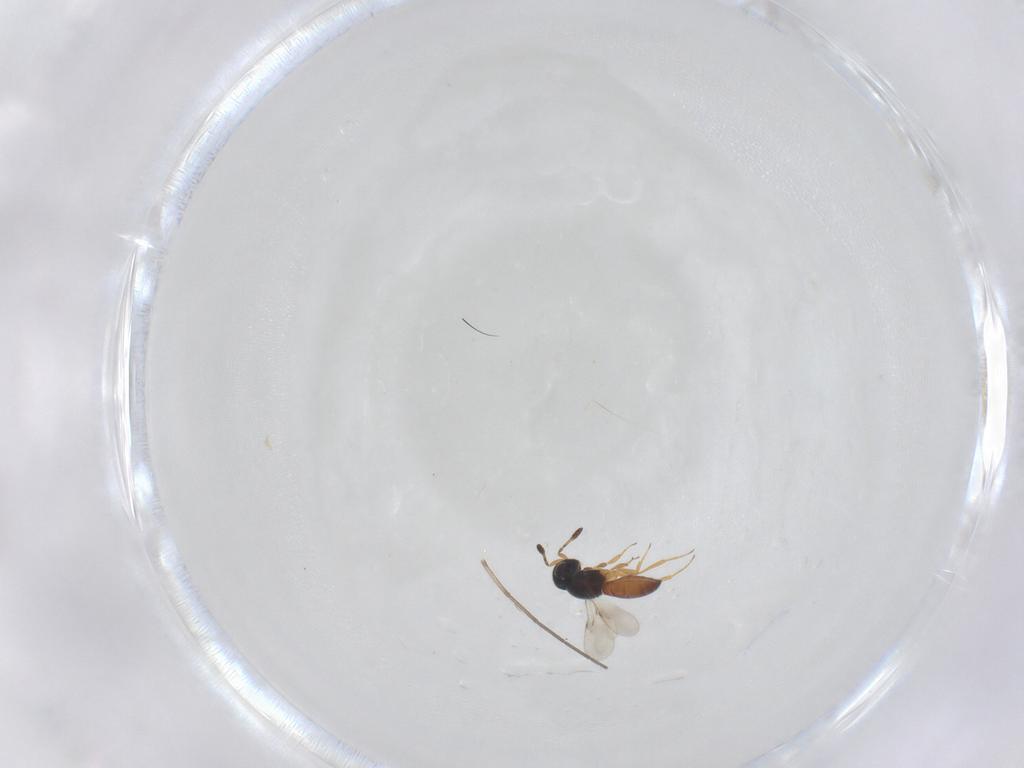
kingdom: Animalia
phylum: Arthropoda
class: Insecta
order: Hymenoptera
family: Scelionidae
